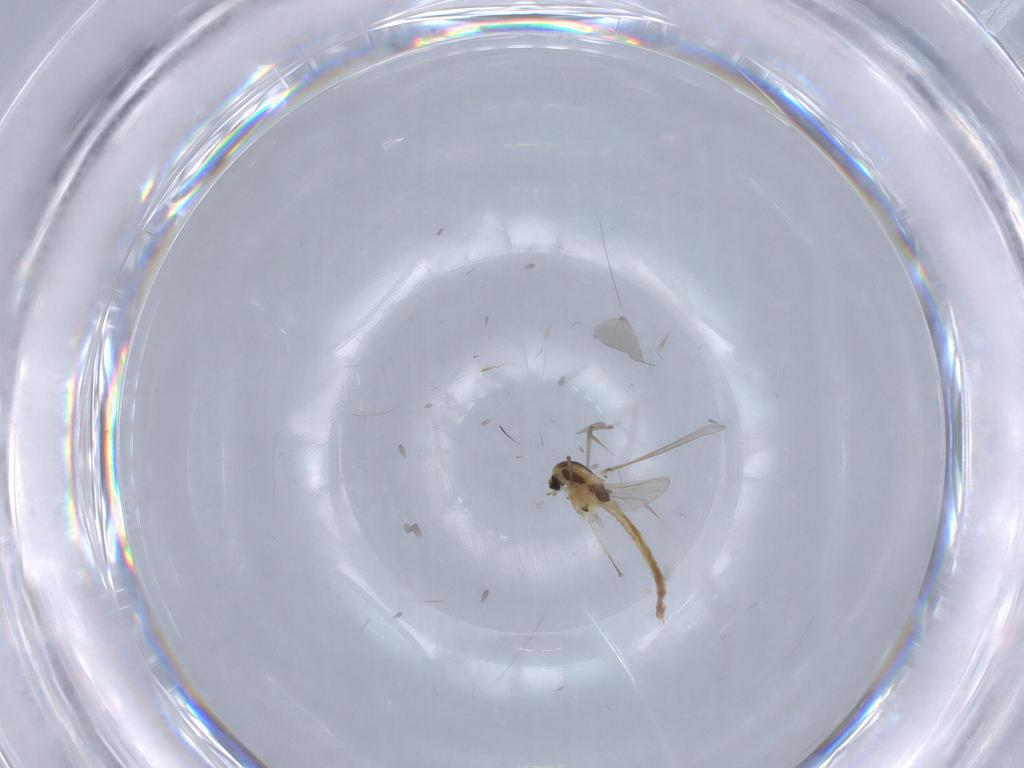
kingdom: Animalia
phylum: Arthropoda
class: Insecta
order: Diptera
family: Chironomidae
